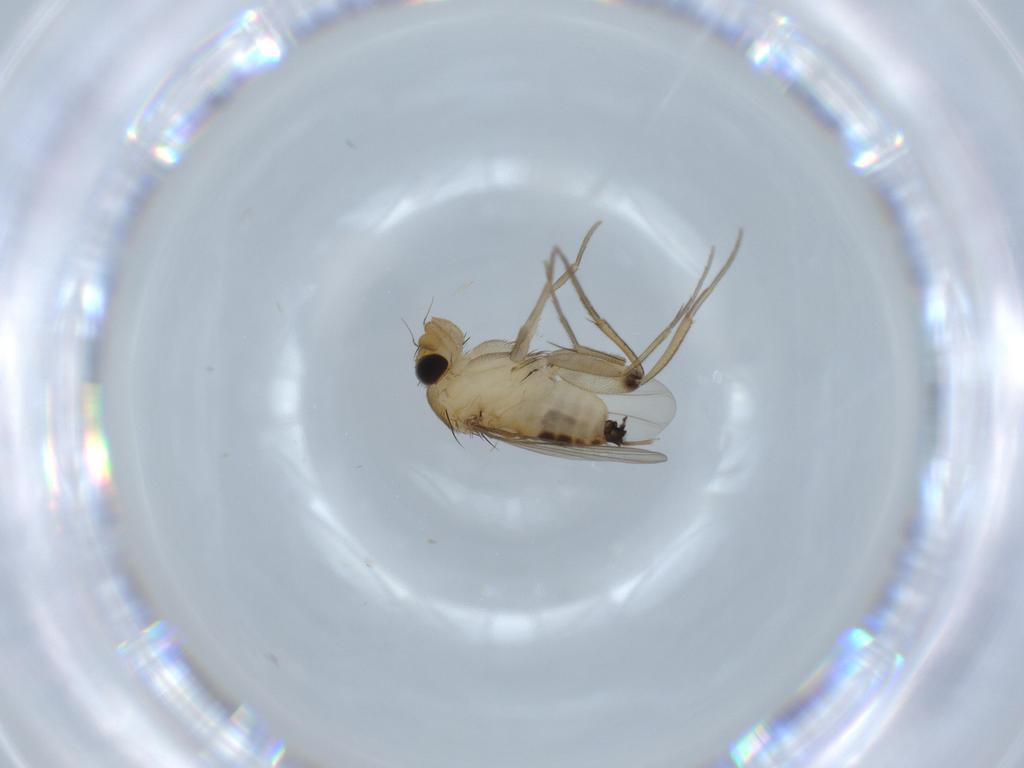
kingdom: Animalia
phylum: Arthropoda
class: Insecta
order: Diptera
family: Phoridae
